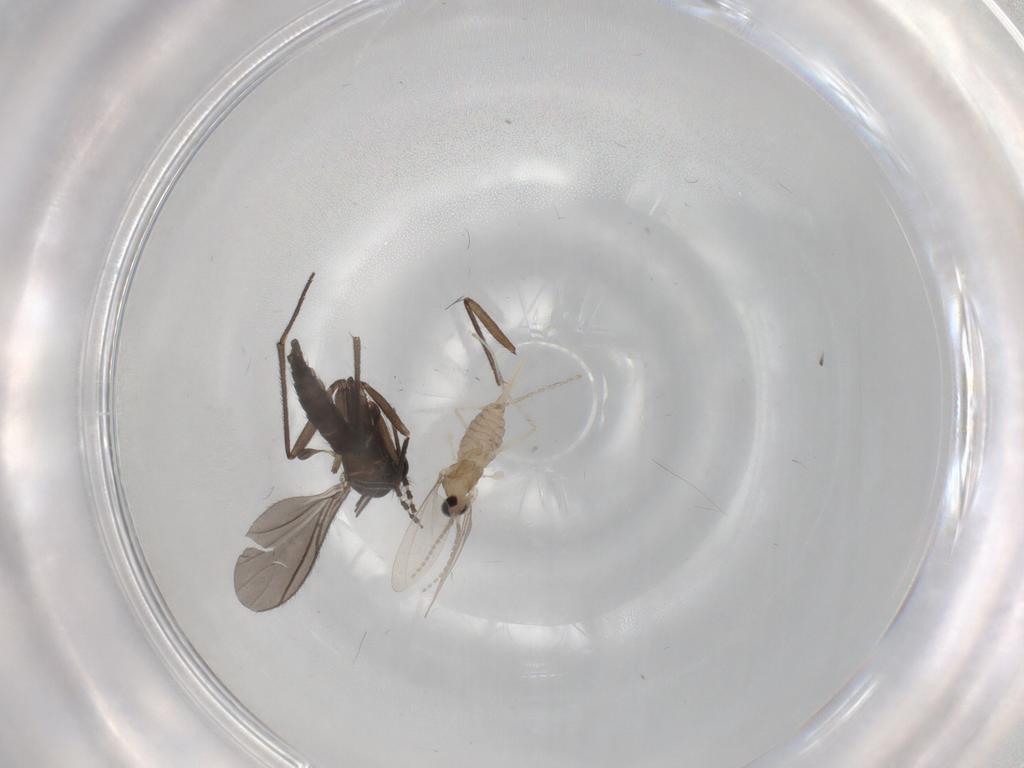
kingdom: Animalia
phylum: Arthropoda
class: Insecta
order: Diptera
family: Sciaridae
